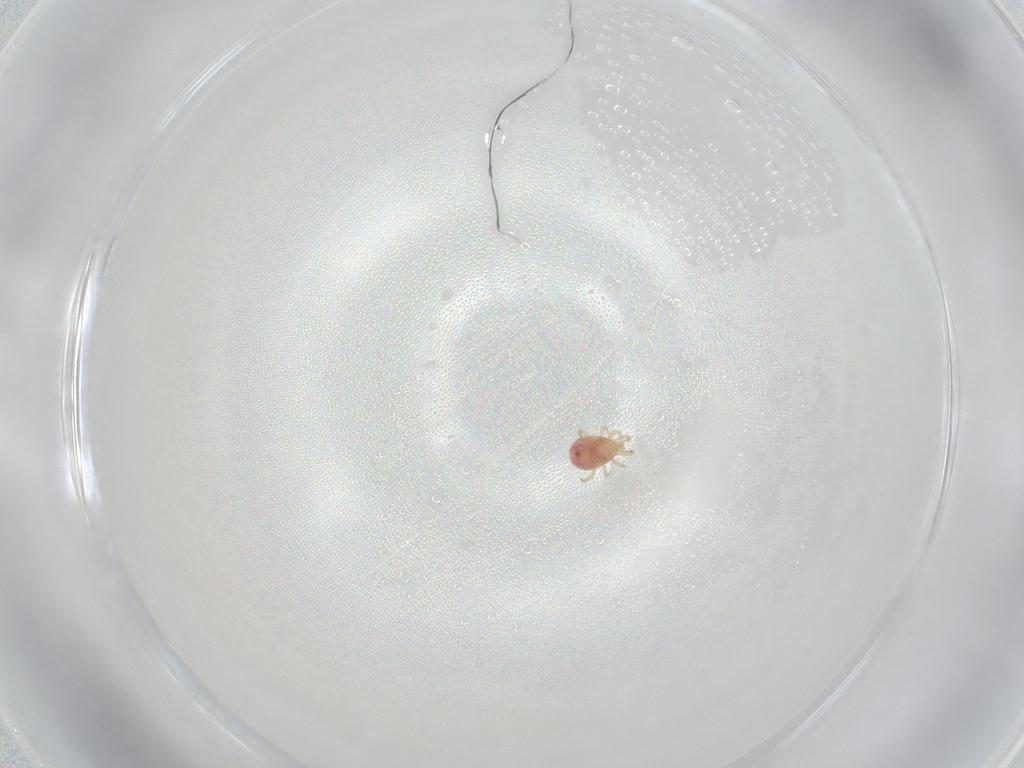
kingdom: Animalia
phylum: Arthropoda
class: Arachnida
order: Mesostigmata
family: Phytoseiidae
